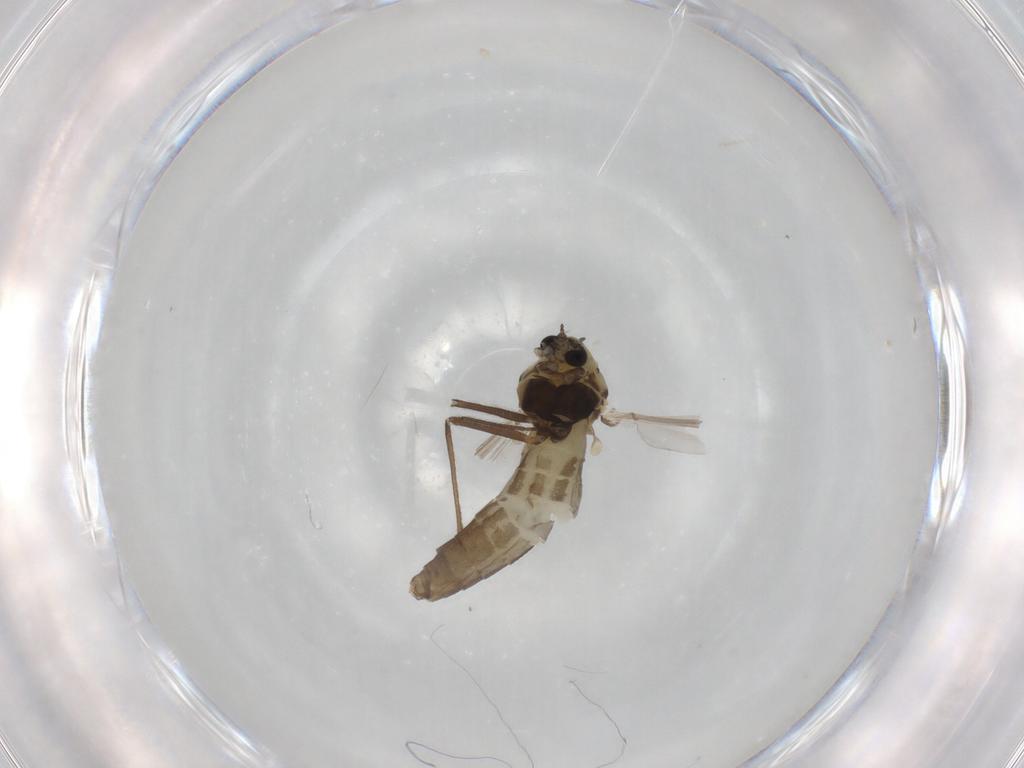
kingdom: Animalia
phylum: Arthropoda
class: Insecta
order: Diptera
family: Chironomidae
